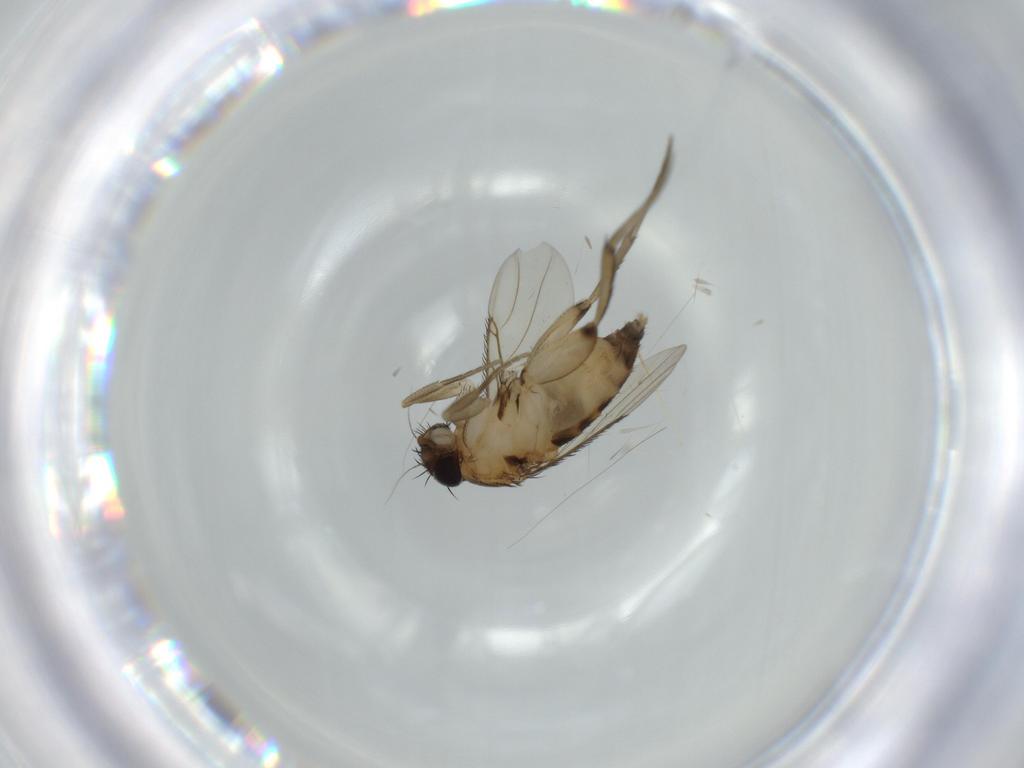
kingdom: Animalia
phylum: Arthropoda
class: Insecta
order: Diptera
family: Phoridae
